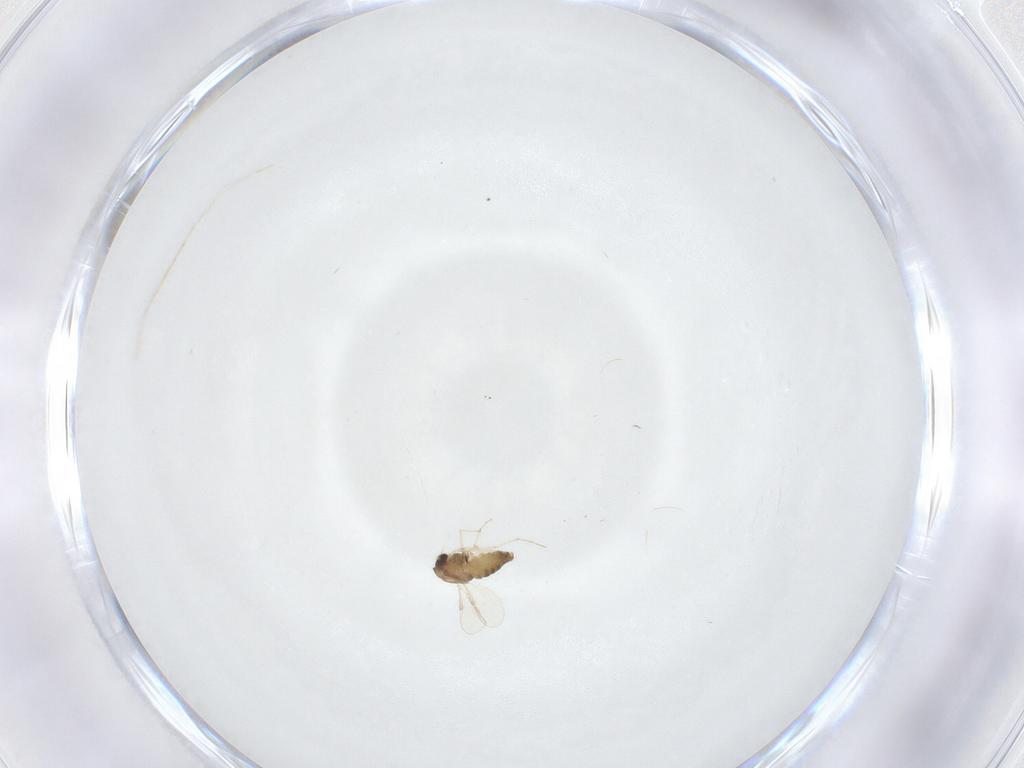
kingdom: Animalia
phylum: Arthropoda
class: Insecta
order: Diptera
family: Chironomidae
